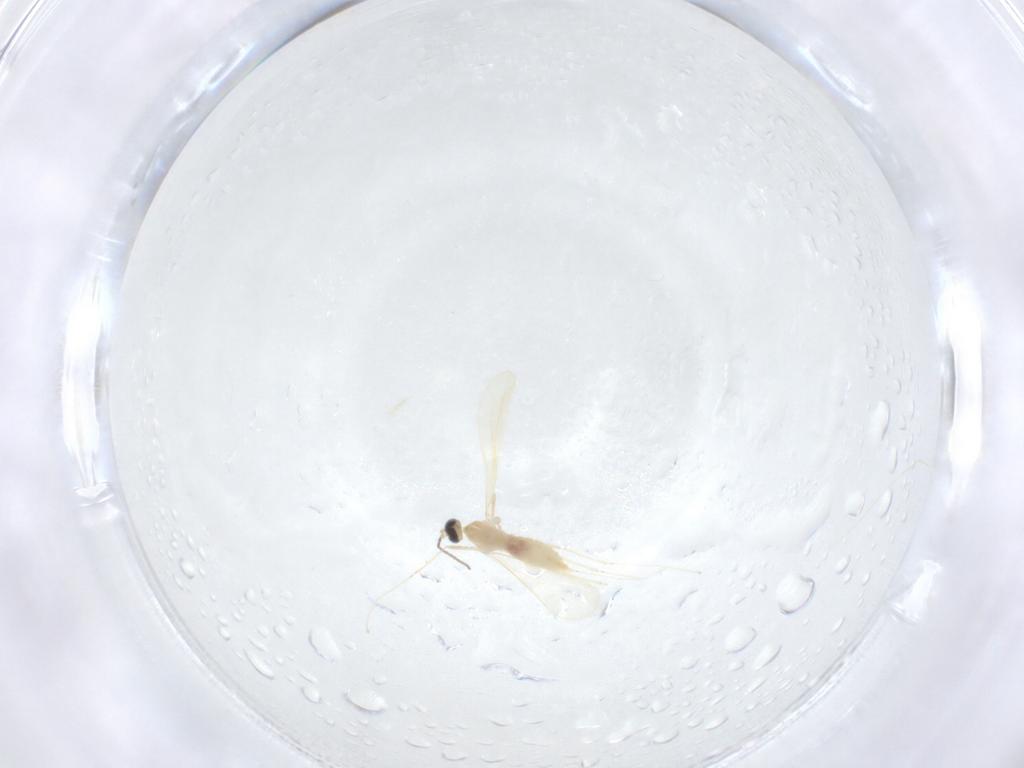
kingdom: Animalia
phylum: Arthropoda
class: Insecta
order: Diptera
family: Cecidomyiidae
